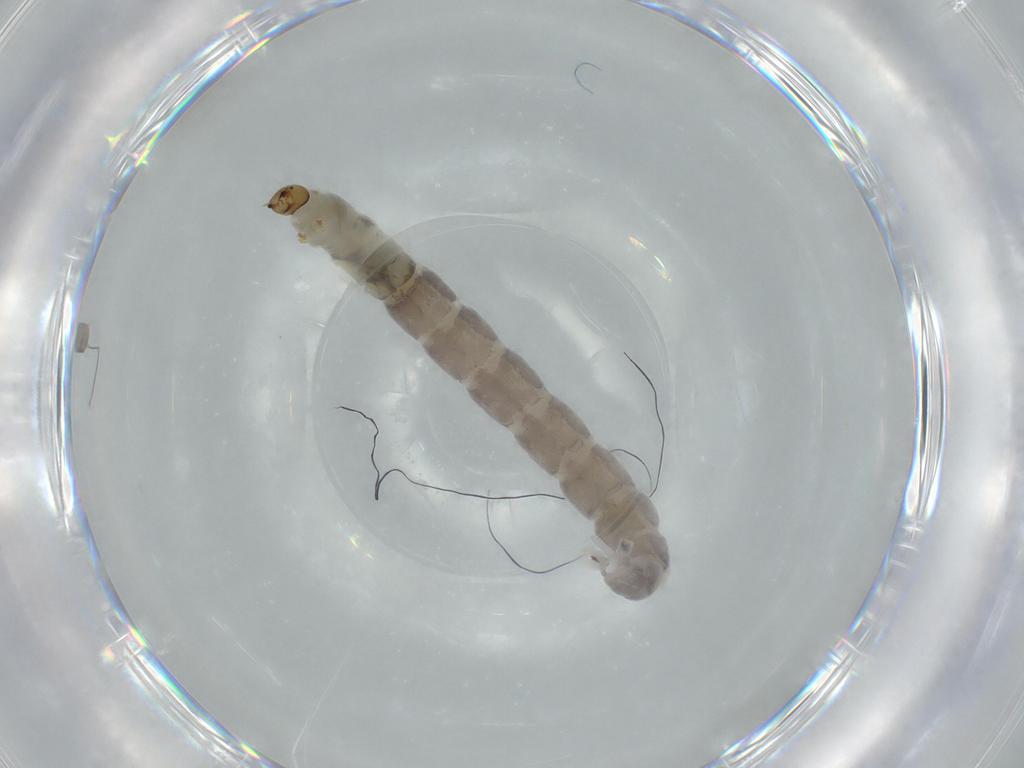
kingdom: Animalia
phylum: Arthropoda
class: Insecta
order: Diptera
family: Chironomidae
